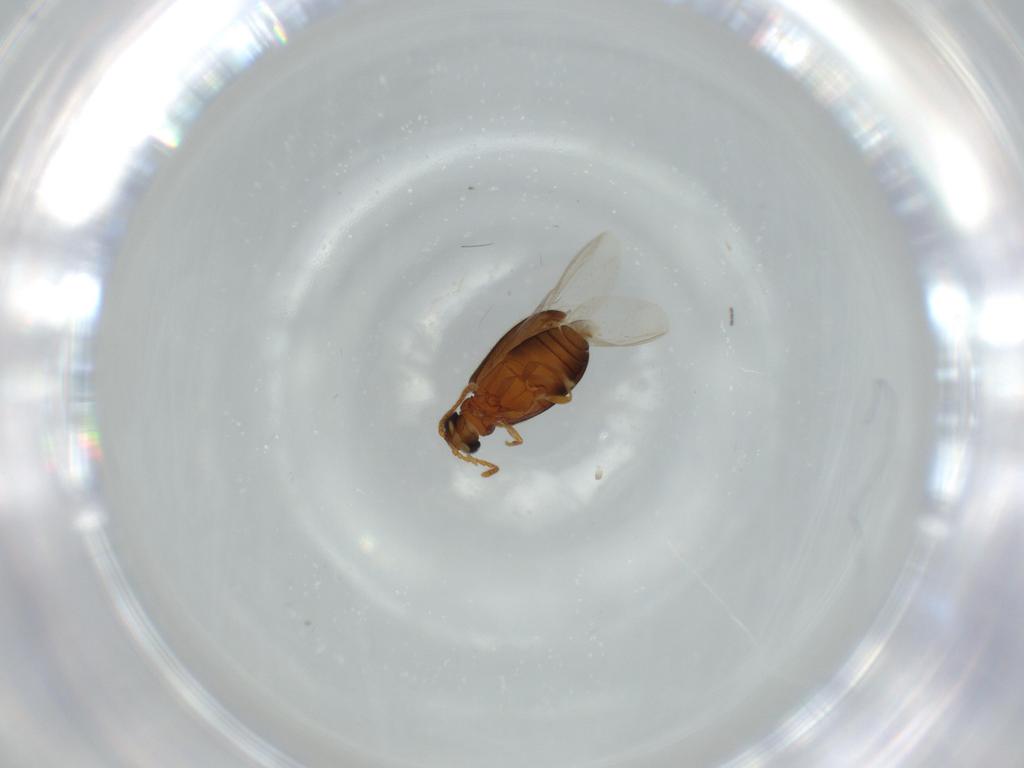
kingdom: Animalia
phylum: Arthropoda
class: Insecta
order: Coleoptera
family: Aderidae
